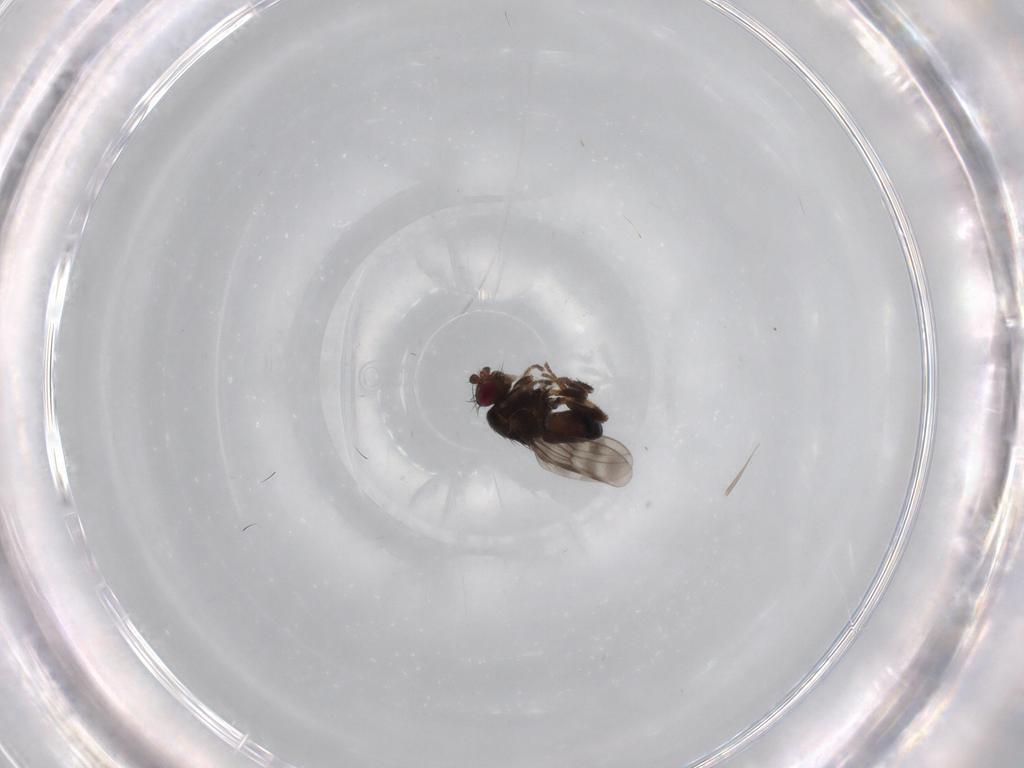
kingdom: Animalia
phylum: Arthropoda
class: Insecta
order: Diptera
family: Sphaeroceridae
